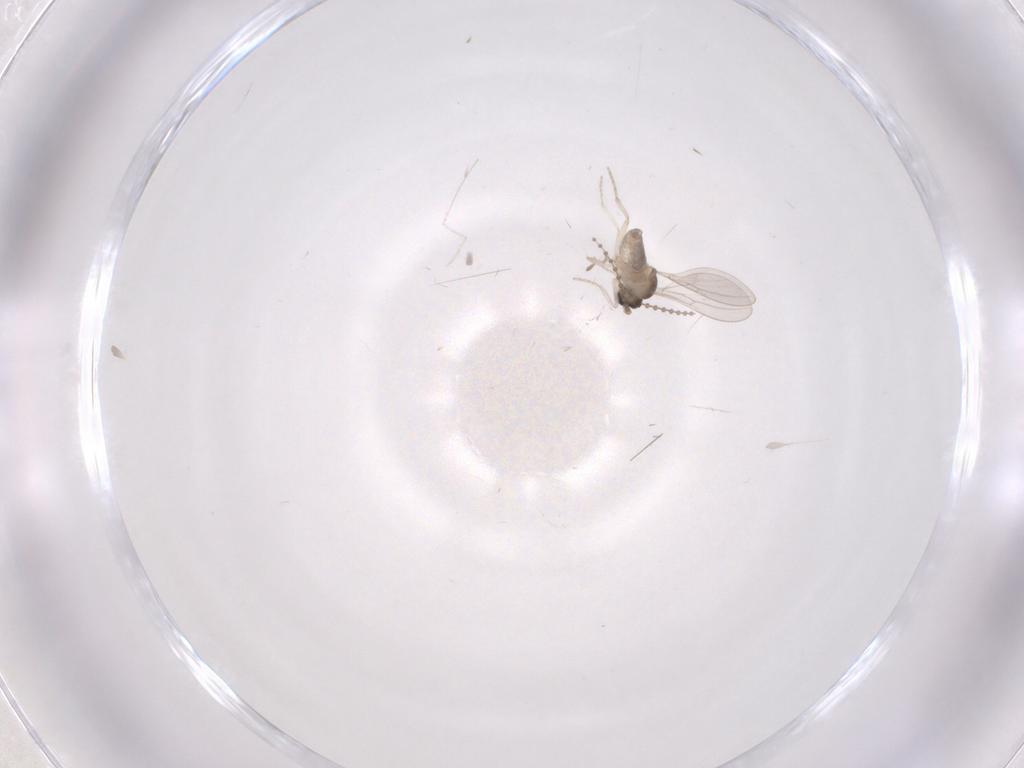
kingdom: Animalia
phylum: Arthropoda
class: Insecta
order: Diptera
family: Cecidomyiidae
